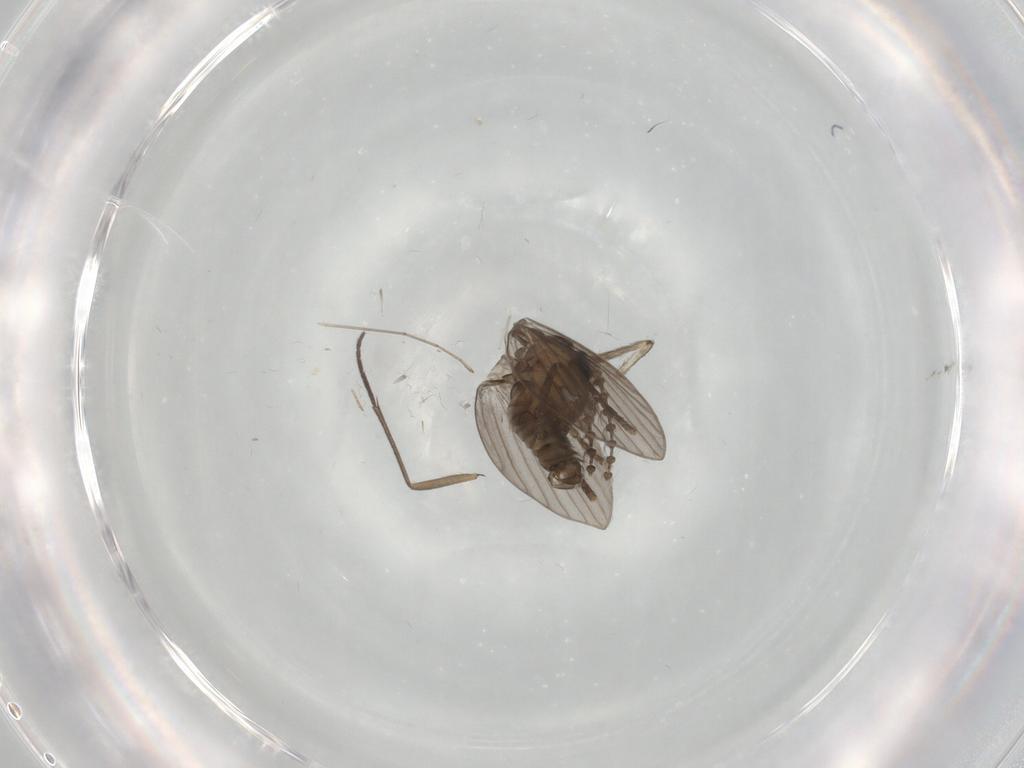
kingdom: Animalia
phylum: Arthropoda
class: Insecta
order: Diptera
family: Psychodidae
